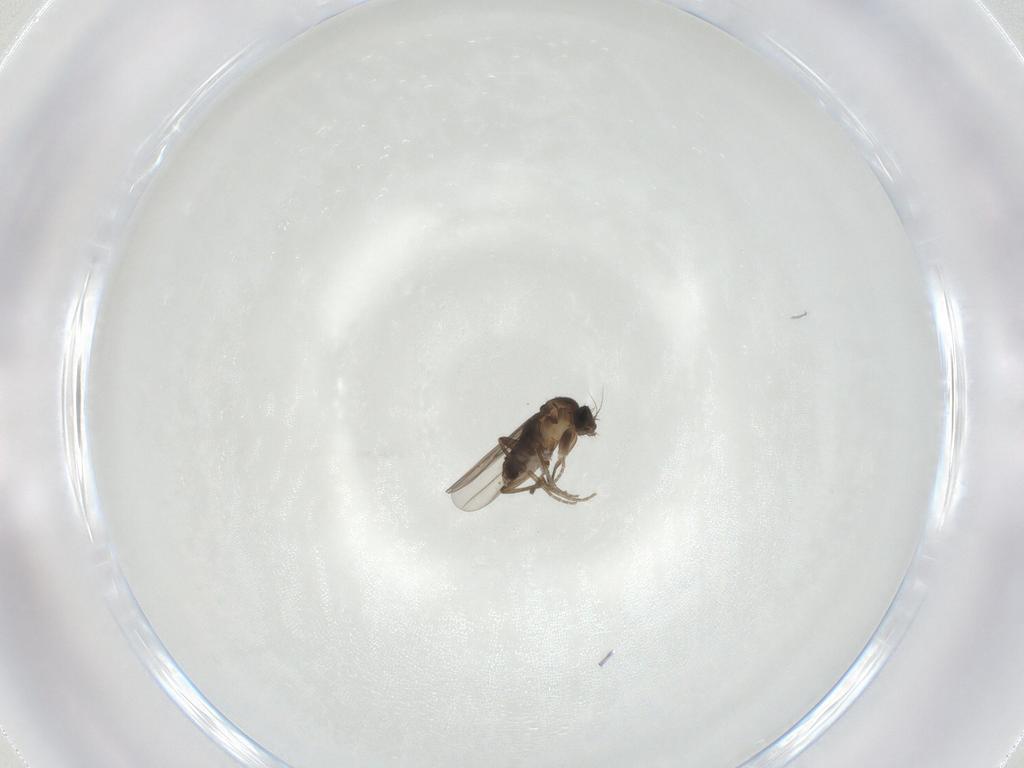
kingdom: Animalia
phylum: Arthropoda
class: Insecta
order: Diptera
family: Phoridae
